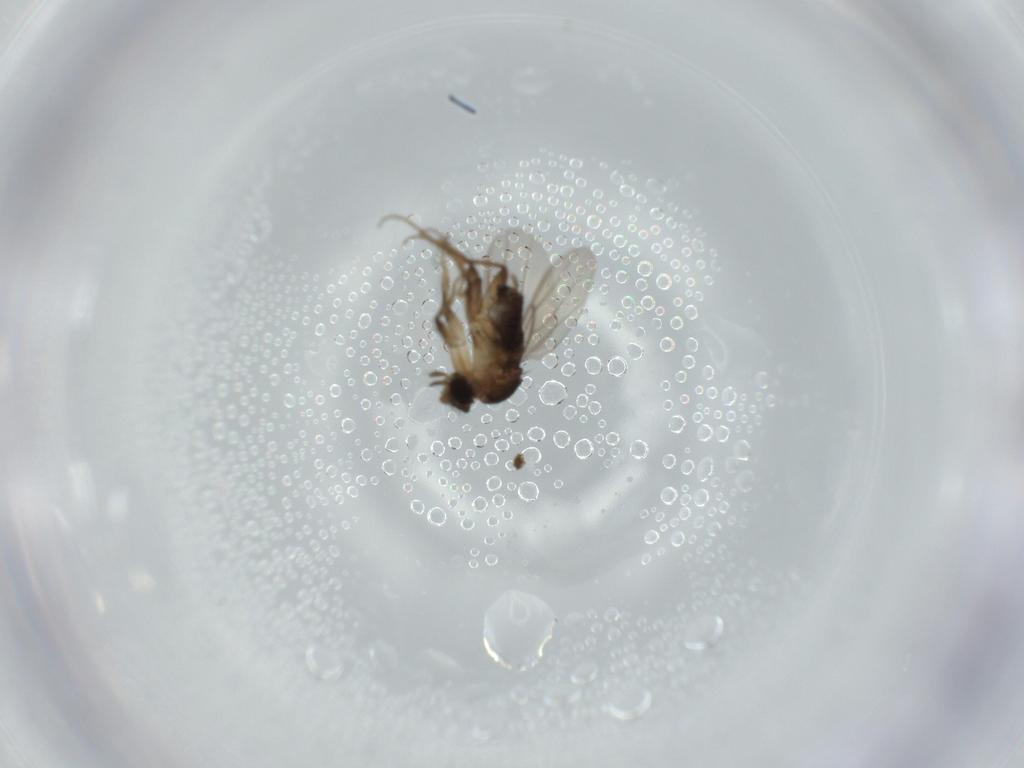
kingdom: Animalia
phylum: Arthropoda
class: Insecta
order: Diptera
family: Phoridae
